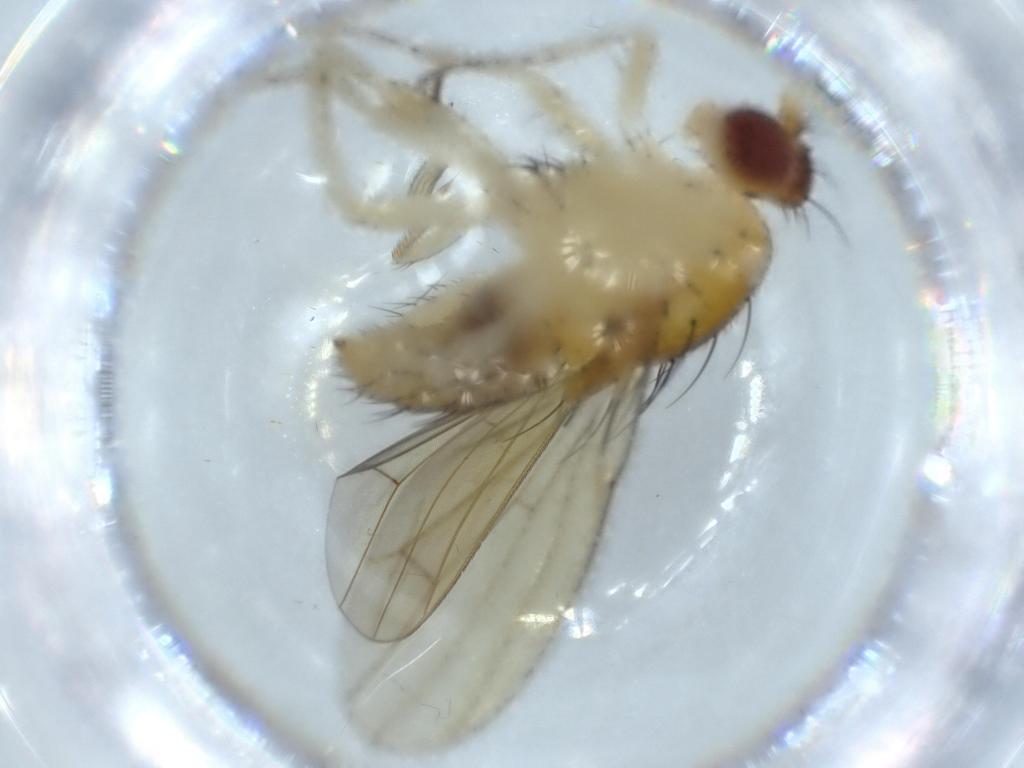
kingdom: Animalia
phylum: Arthropoda
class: Insecta
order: Diptera
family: Lauxaniidae
